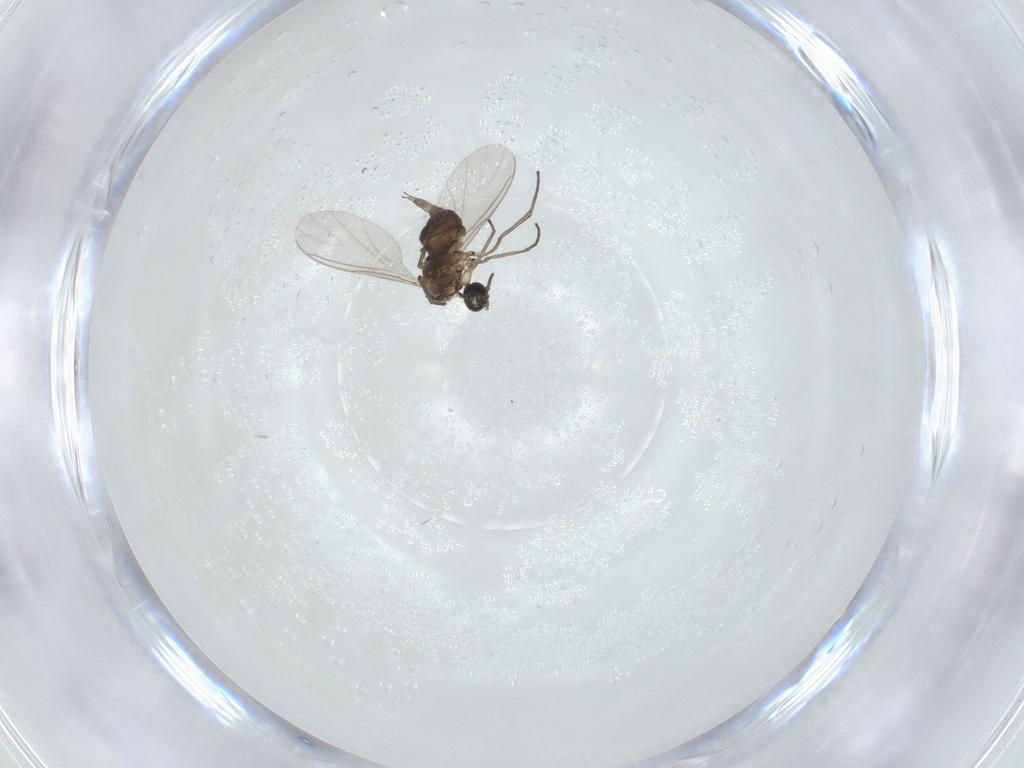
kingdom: Animalia
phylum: Arthropoda
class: Insecta
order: Diptera
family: Sciaridae
